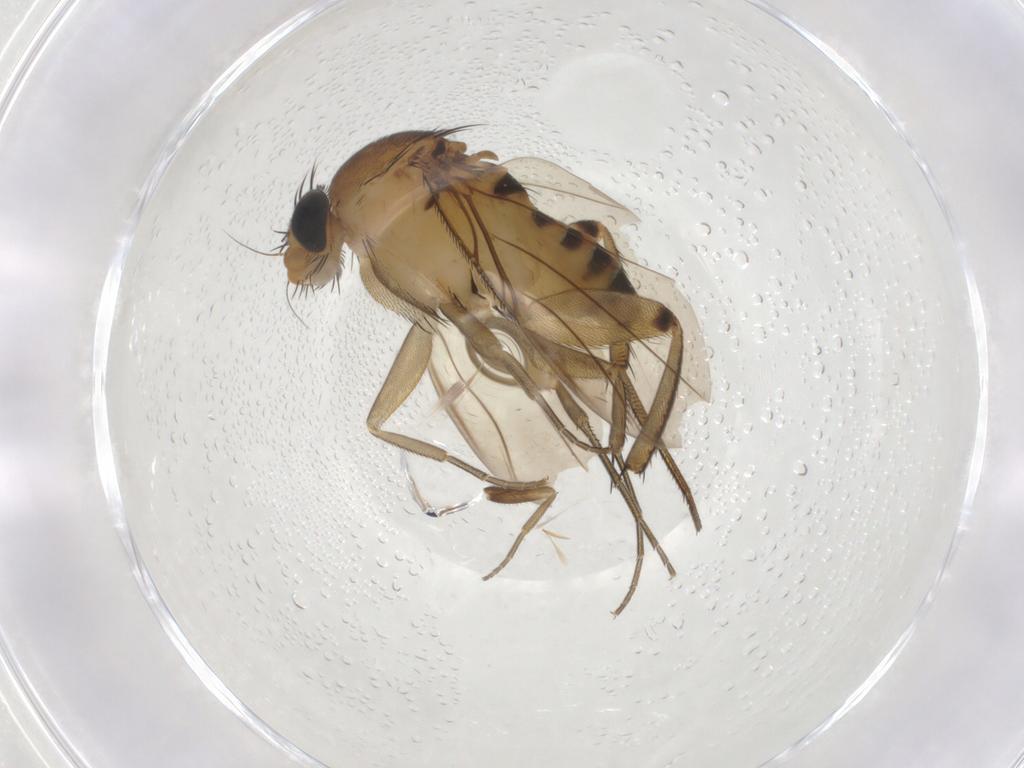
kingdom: Animalia
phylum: Arthropoda
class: Insecta
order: Diptera
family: Phoridae
